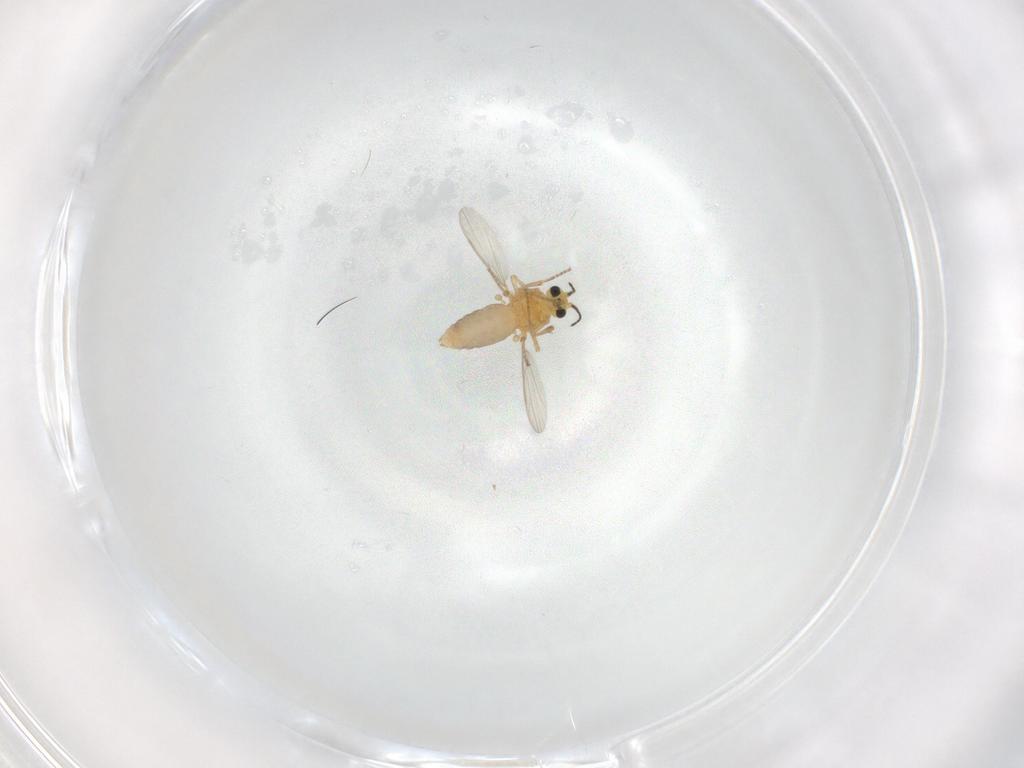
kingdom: Animalia
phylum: Arthropoda
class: Insecta
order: Diptera
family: Ceratopogonidae
